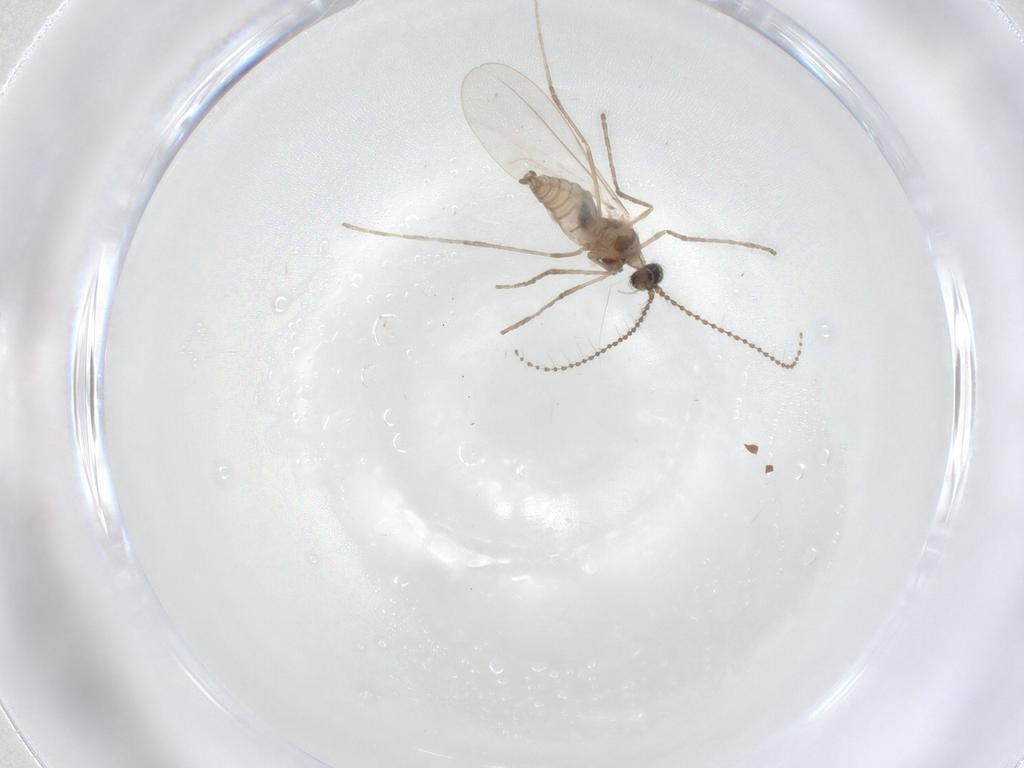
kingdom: Animalia
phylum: Arthropoda
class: Insecta
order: Diptera
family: Cecidomyiidae
